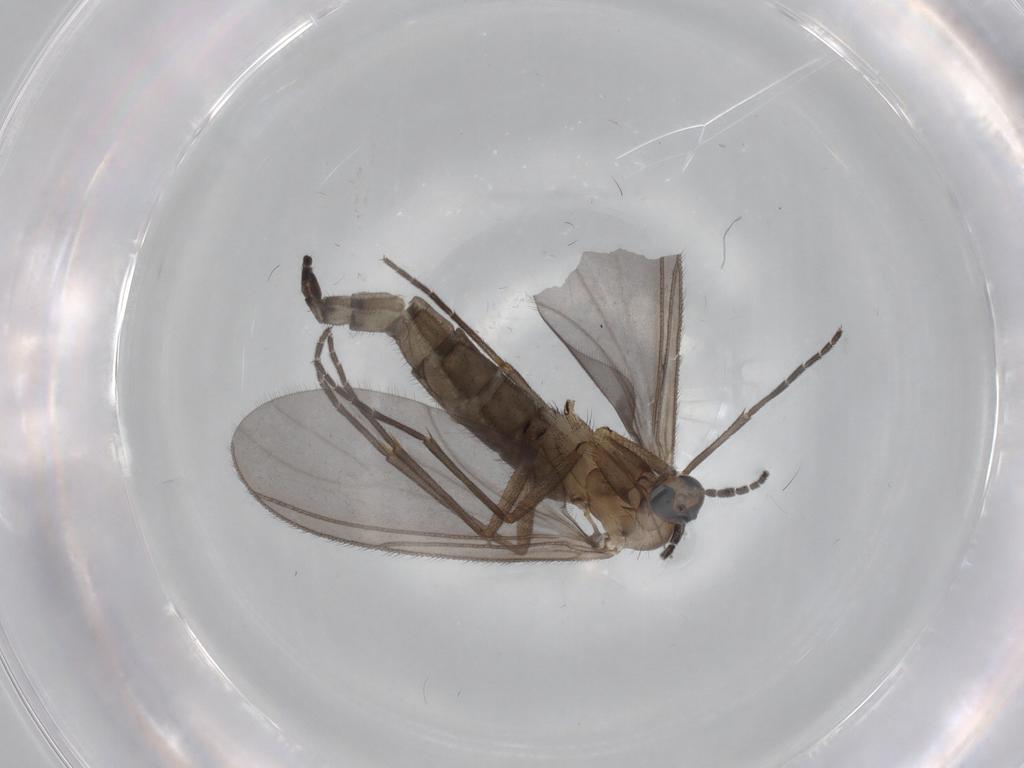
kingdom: Animalia
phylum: Arthropoda
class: Insecta
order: Diptera
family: Sciaridae
